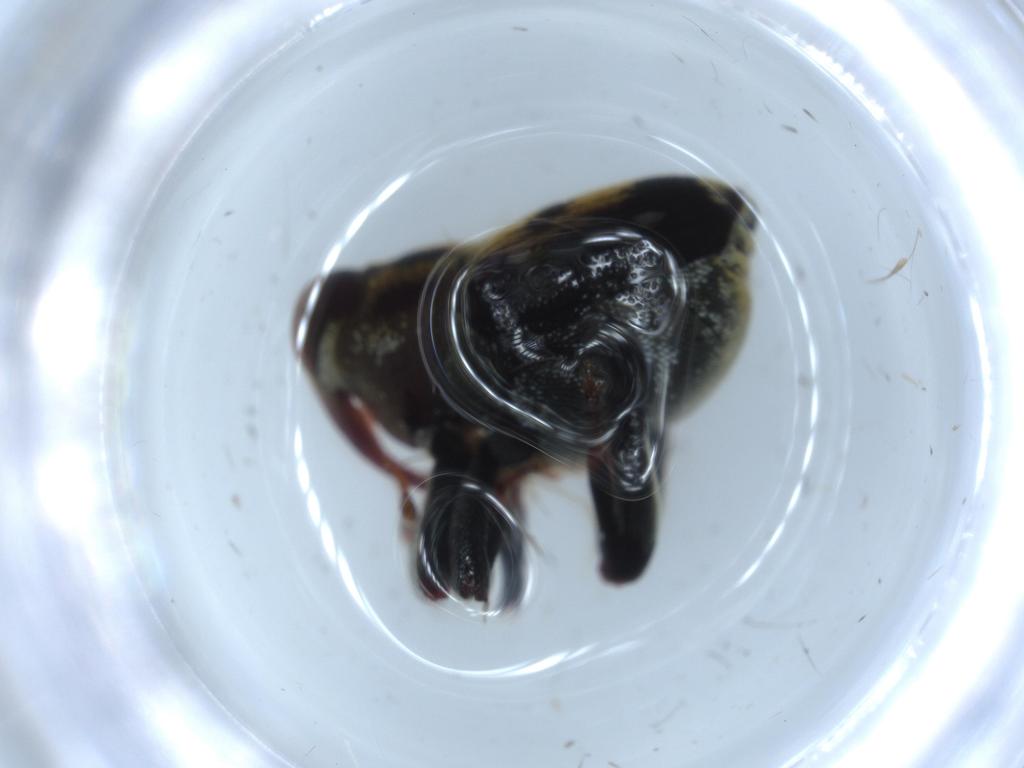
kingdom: Animalia
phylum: Arthropoda
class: Insecta
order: Coleoptera
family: Curculionidae
